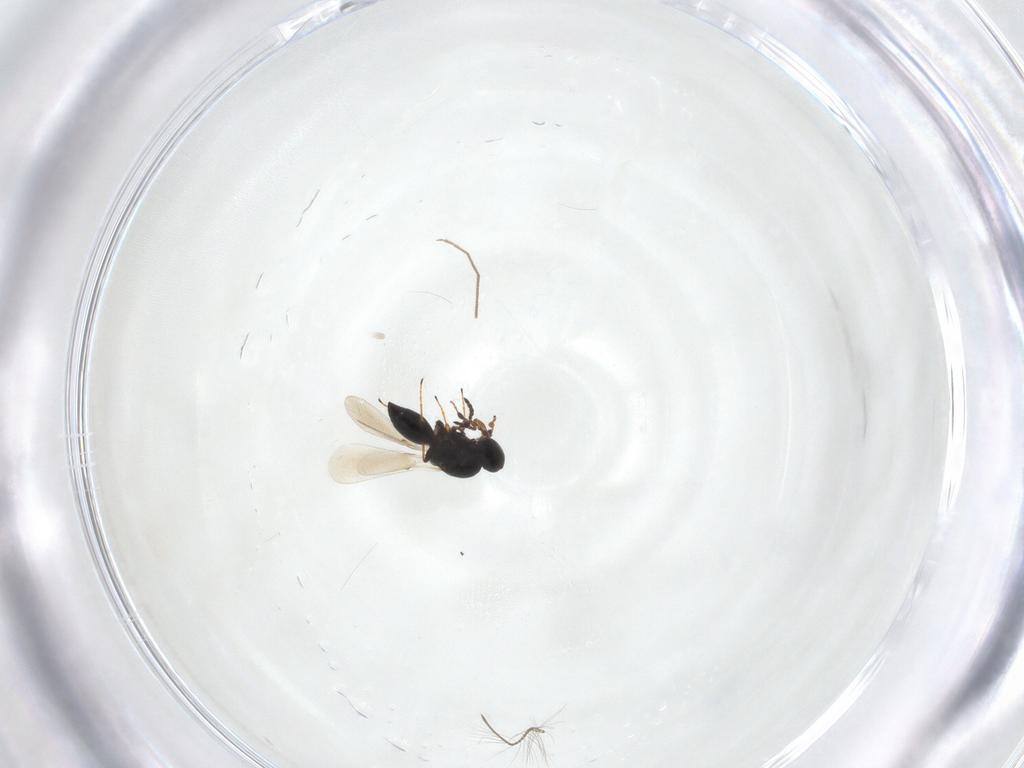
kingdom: Animalia
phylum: Arthropoda
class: Insecta
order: Hymenoptera
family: Platygastridae
